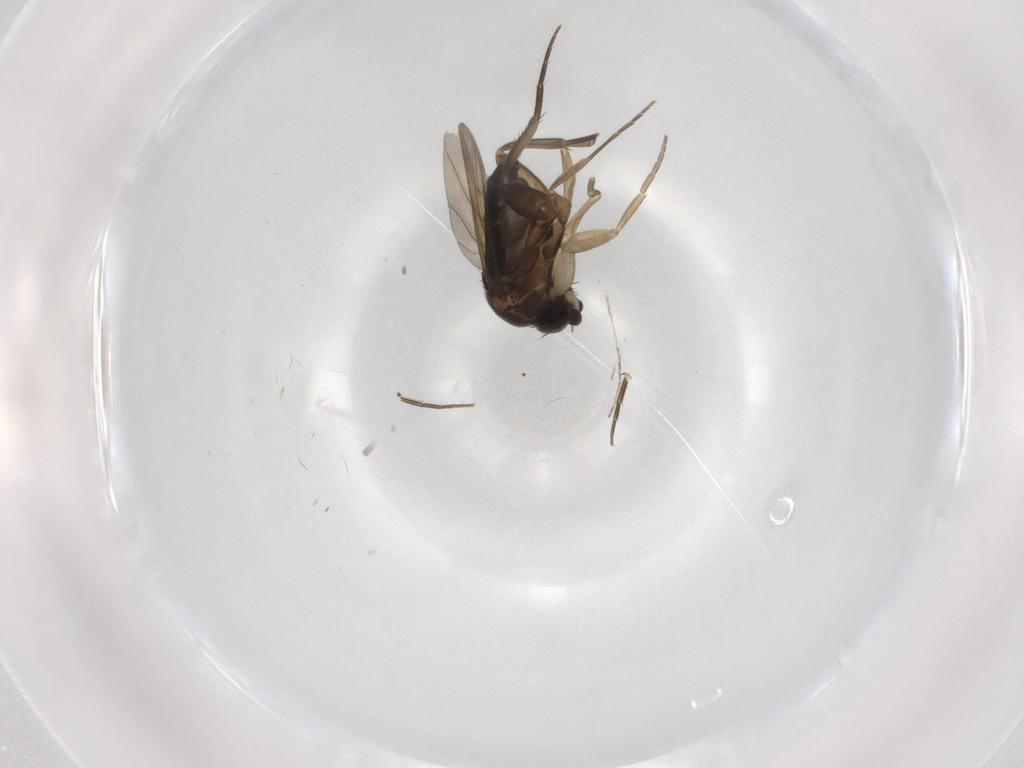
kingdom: Animalia
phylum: Arthropoda
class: Insecta
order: Diptera
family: Phoridae
